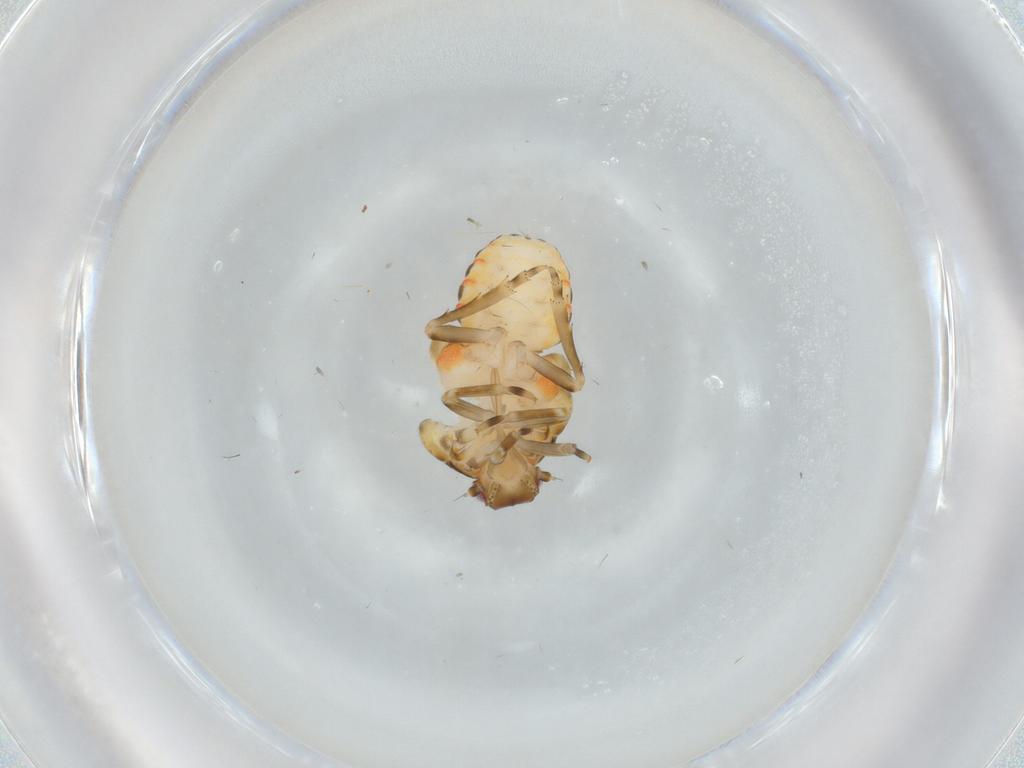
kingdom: Animalia
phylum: Arthropoda
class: Insecta
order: Hemiptera
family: Flatidae
